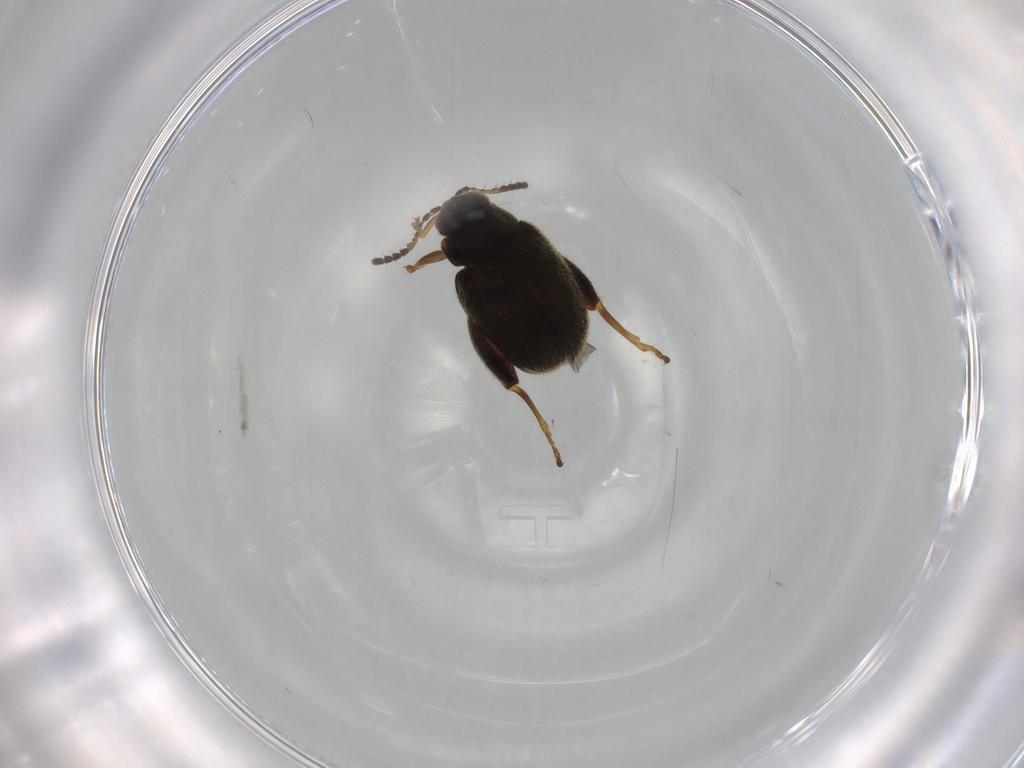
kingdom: Animalia
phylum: Arthropoda
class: Insecta
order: Coleoptera
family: Chrysomelidae
